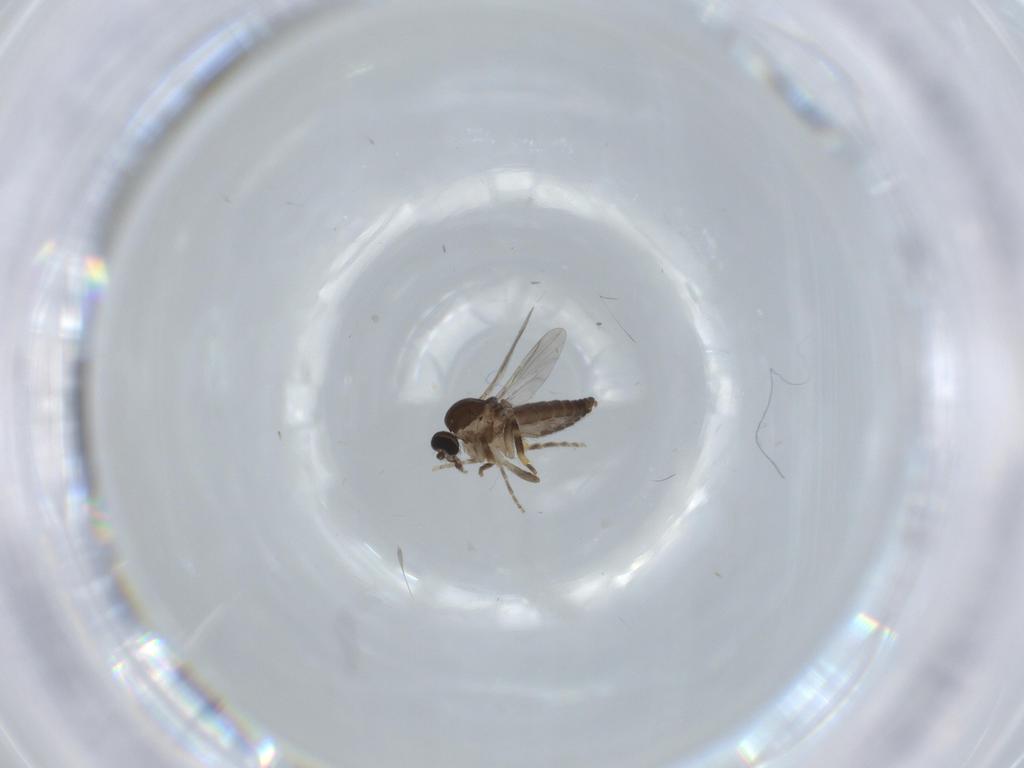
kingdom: Animalia
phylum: Arthropoda
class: Insecta
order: Diptera
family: Ceratopogonidae
